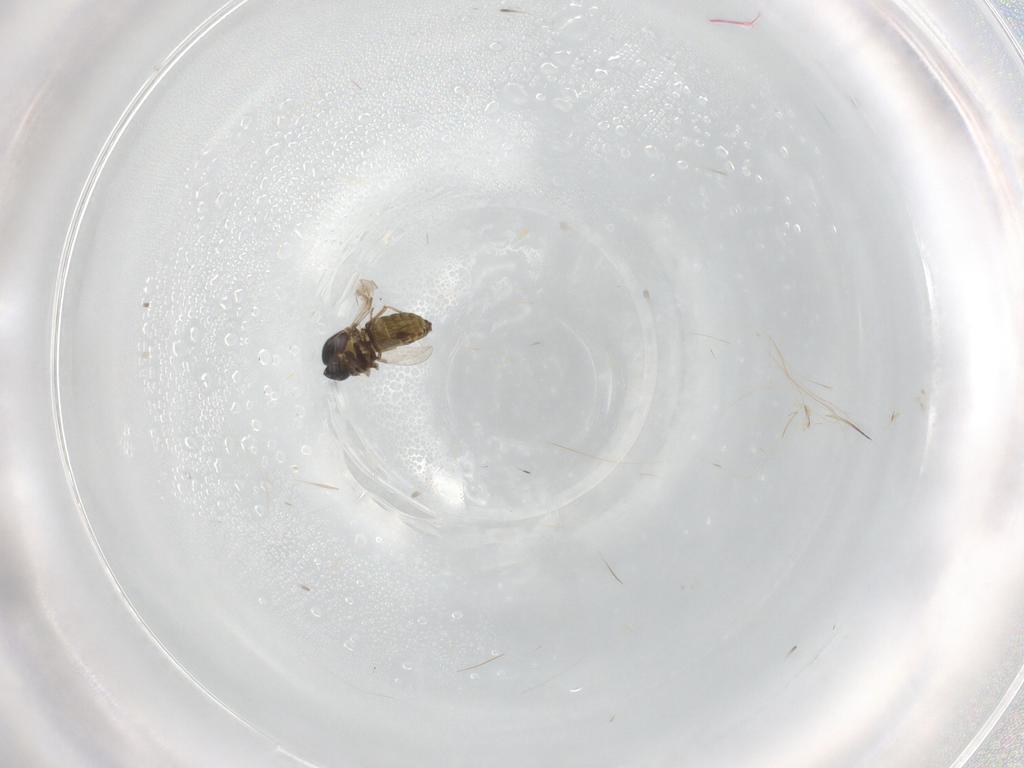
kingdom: Animalia
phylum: Arthropoda
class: Insecta
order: Diptera
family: Ceratopogonidae
